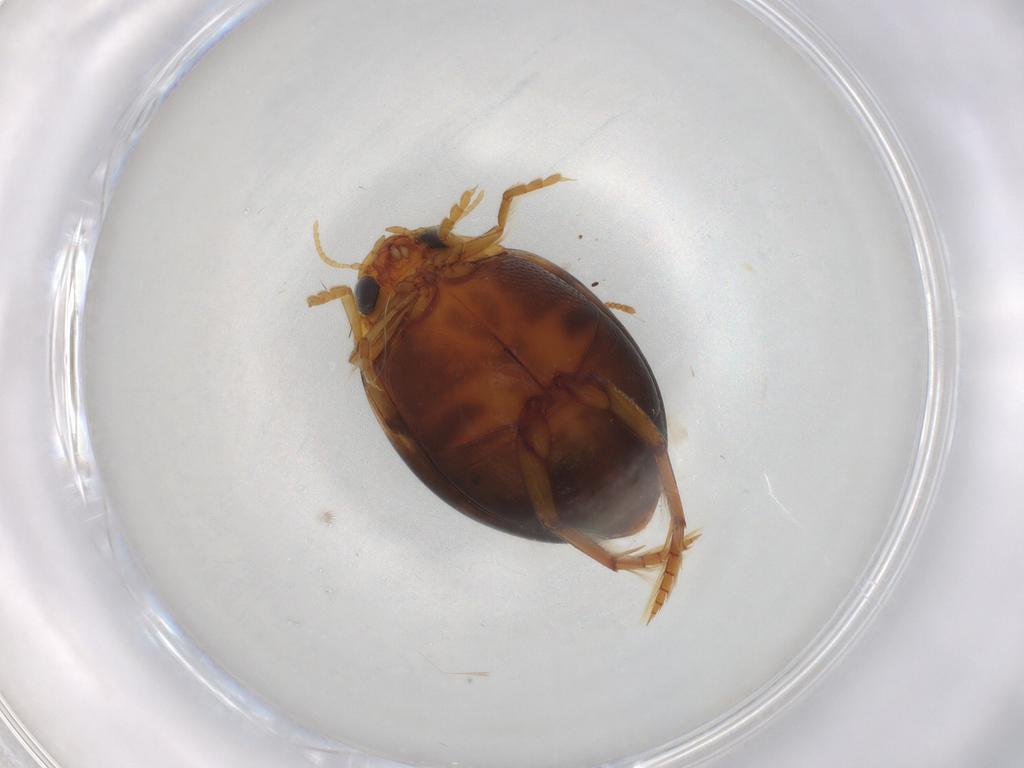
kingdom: Animalia
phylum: Arthropoda
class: Insecta
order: Coleoptera
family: Dytiscidae
